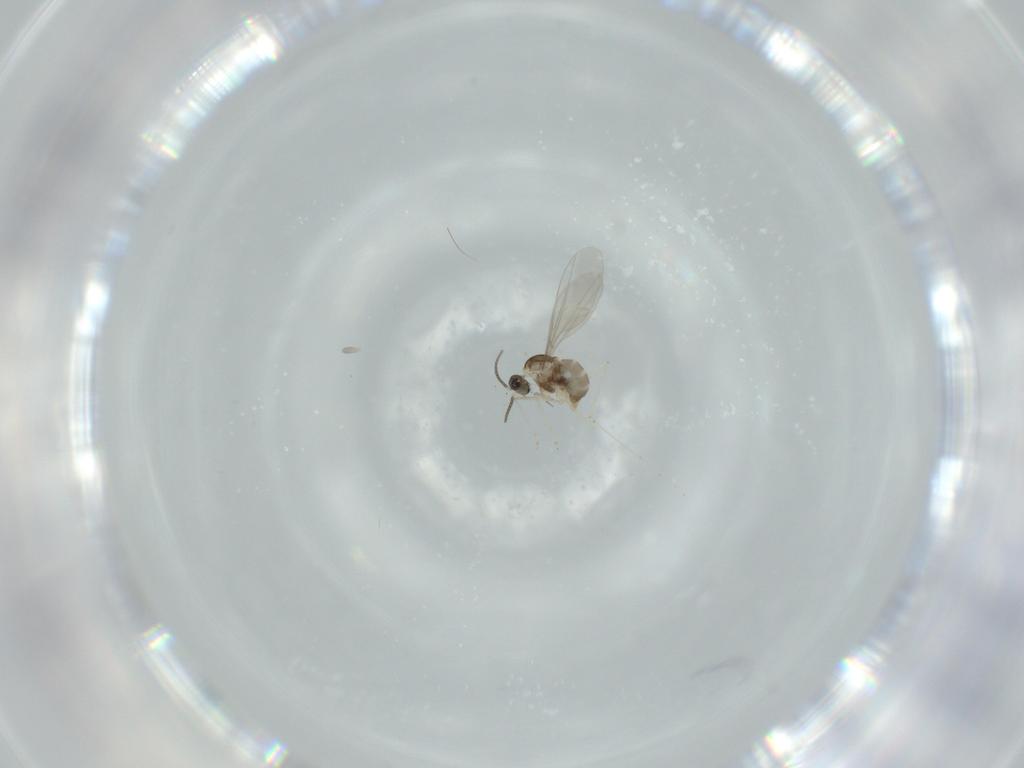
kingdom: Animalia
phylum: Arthropoda
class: Insecta
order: Diptera
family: Cecidomyiidae
